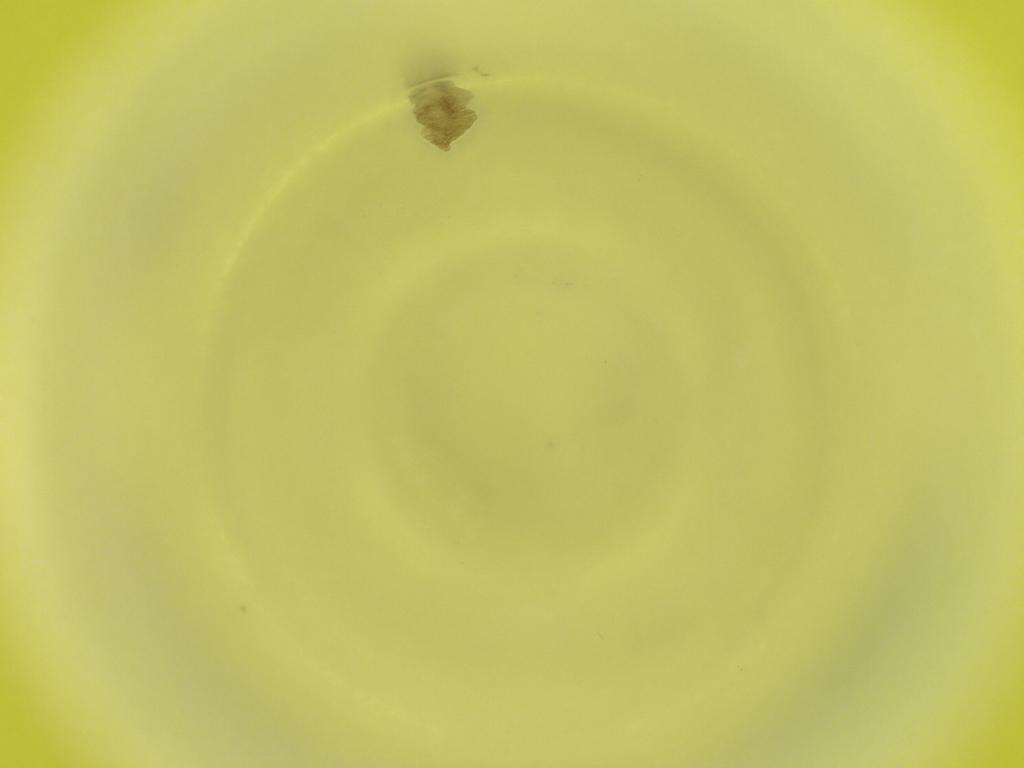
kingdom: Animalia
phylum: Arthropoda
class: Insecta
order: Diptera
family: Cecidomyiidae
